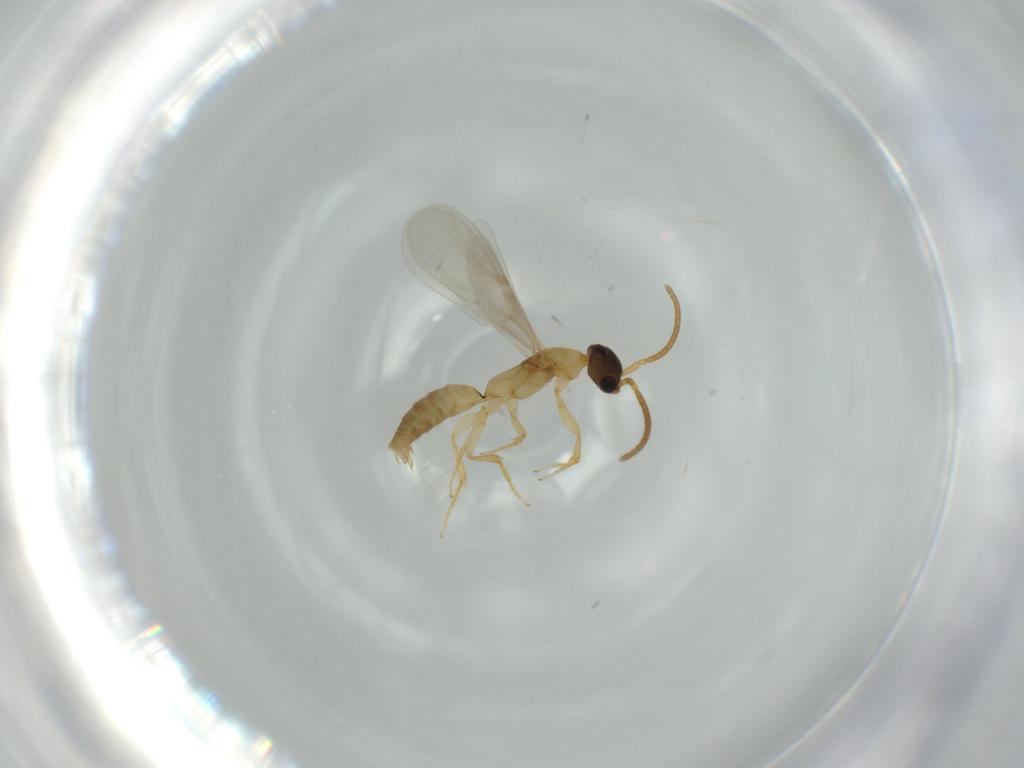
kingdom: Animalia
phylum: Arthropoda
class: Insecta
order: Hymenoptera
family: Bethylidae
